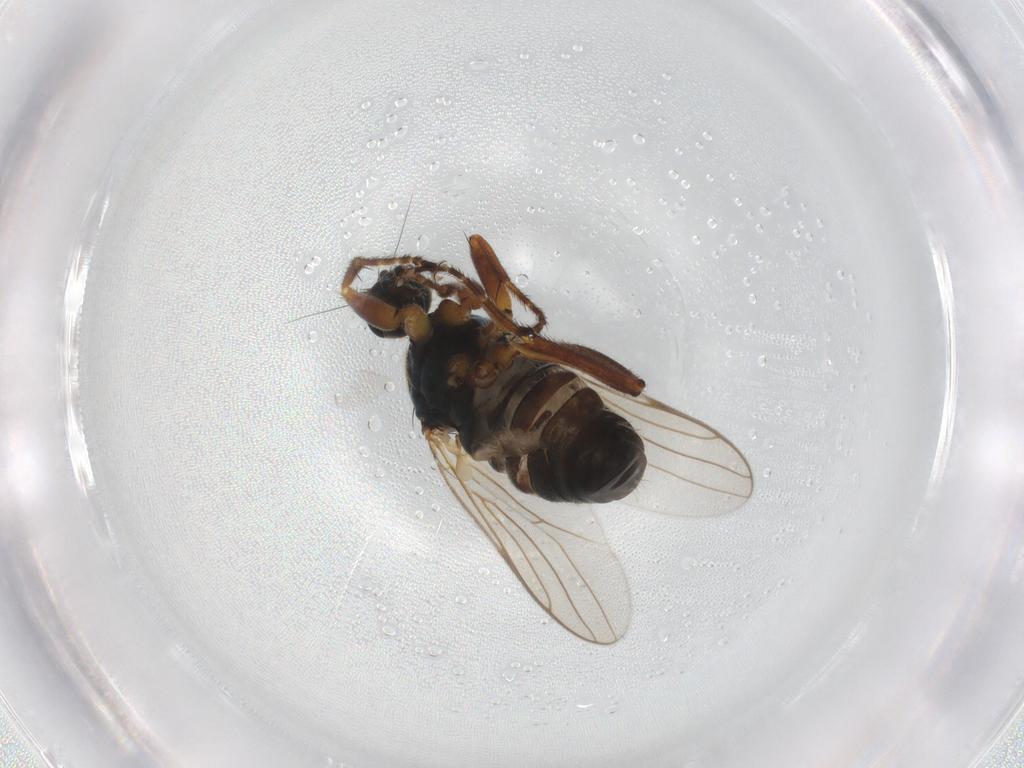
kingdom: Animalia
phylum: Arthropoda
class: Insecta
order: Diptera
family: Hybotidae
